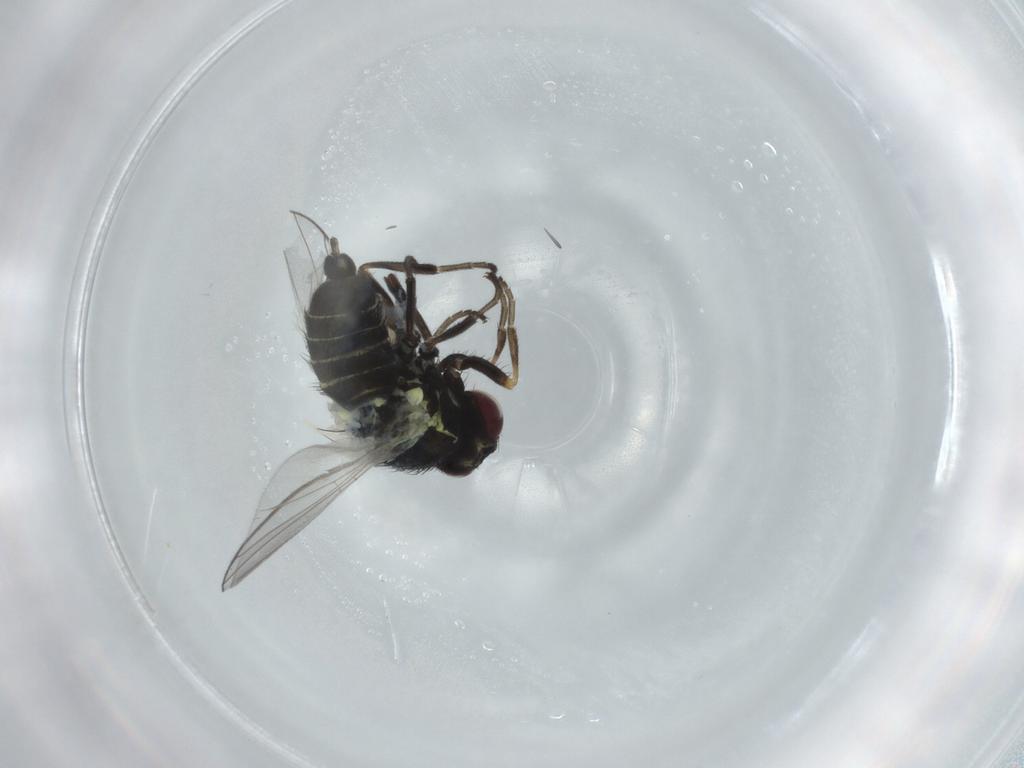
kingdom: Animalia
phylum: Arthropoda
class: Insecta
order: Diptera
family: Agromyzidae
